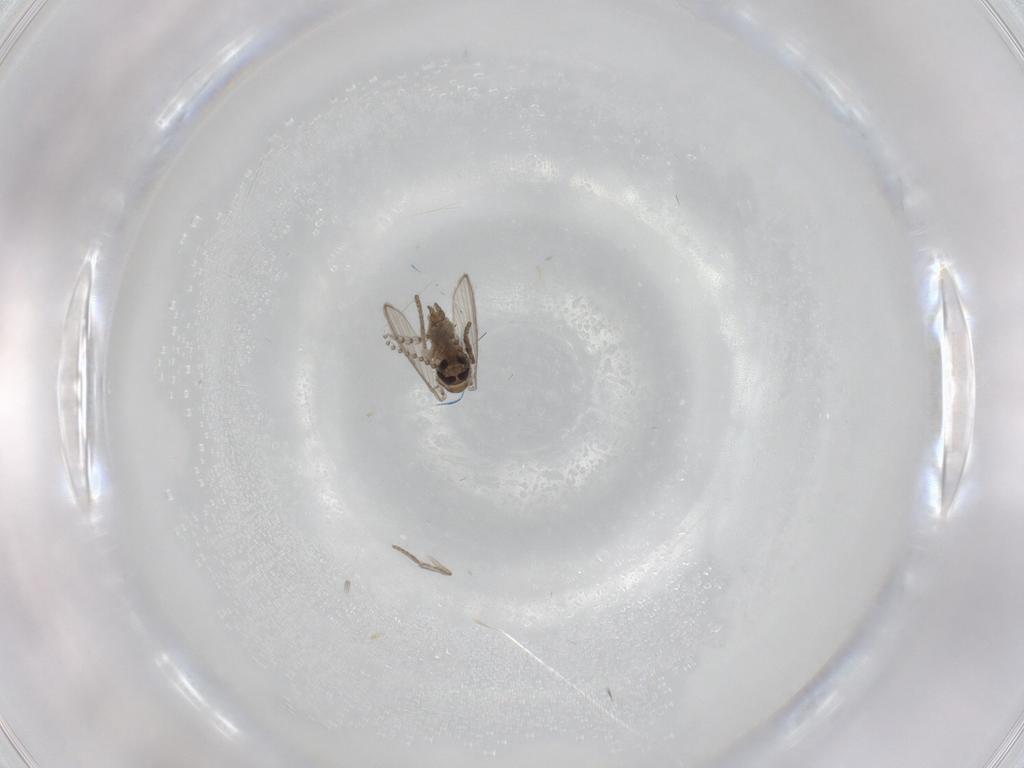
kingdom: Animalia
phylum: Arthropoda
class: Insecta
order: Diptera
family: Psychodidae
